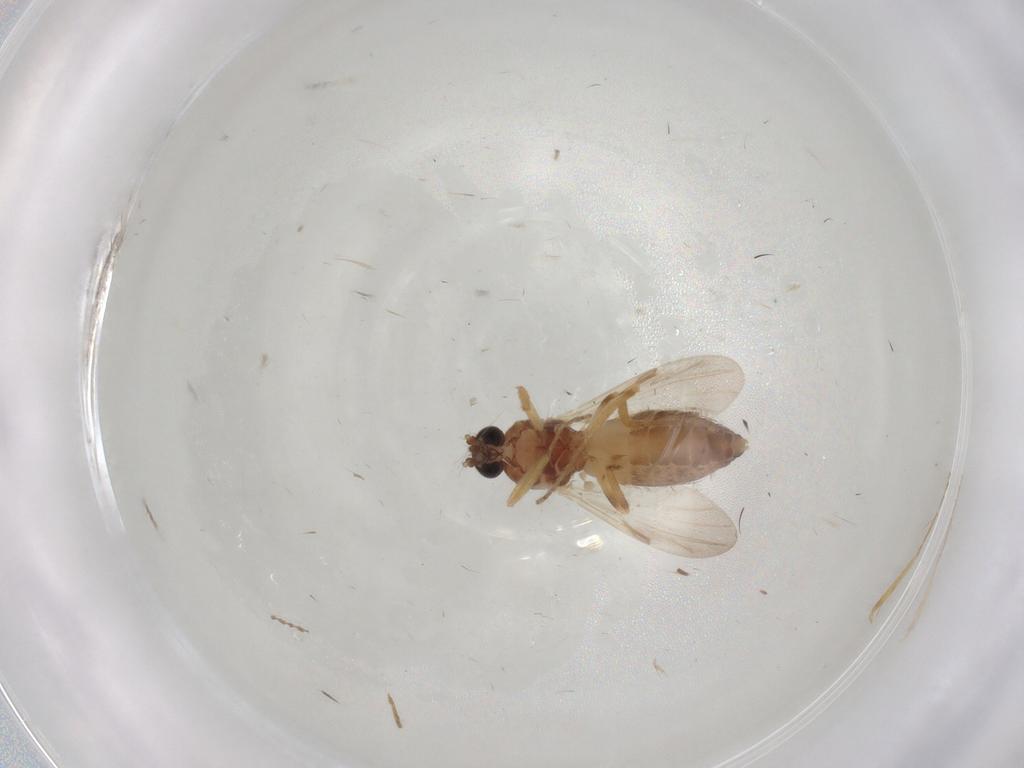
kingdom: Animalia
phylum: Arthropoda
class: Insecta
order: Diptera
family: Sciaridae
